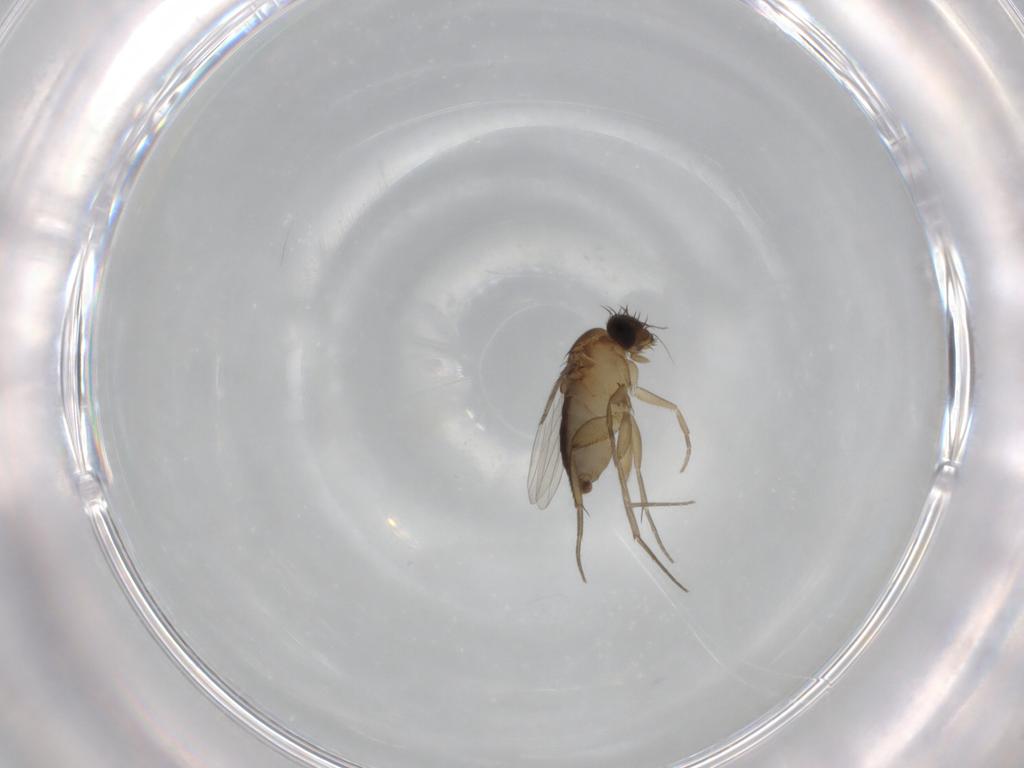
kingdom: Animalia
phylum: Arthropoda
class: Insecta
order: Diptera
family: Phoridae
